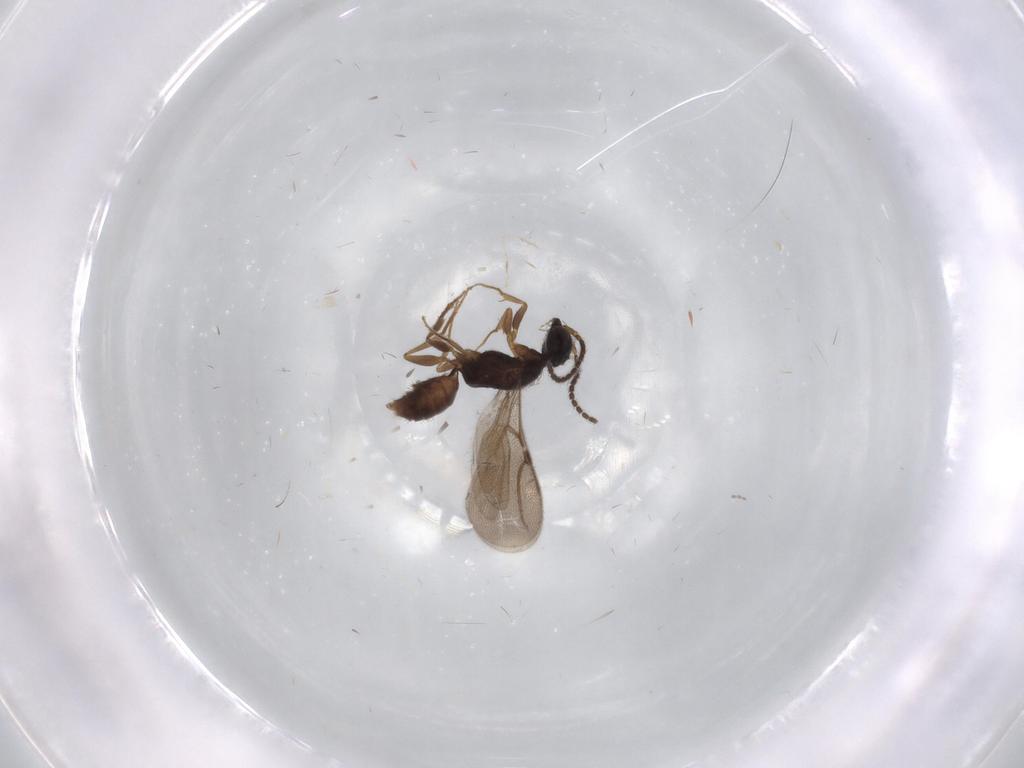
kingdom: Animalia
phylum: Arthropoda
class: Insecta
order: Hymenoptera
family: Bethylidae
